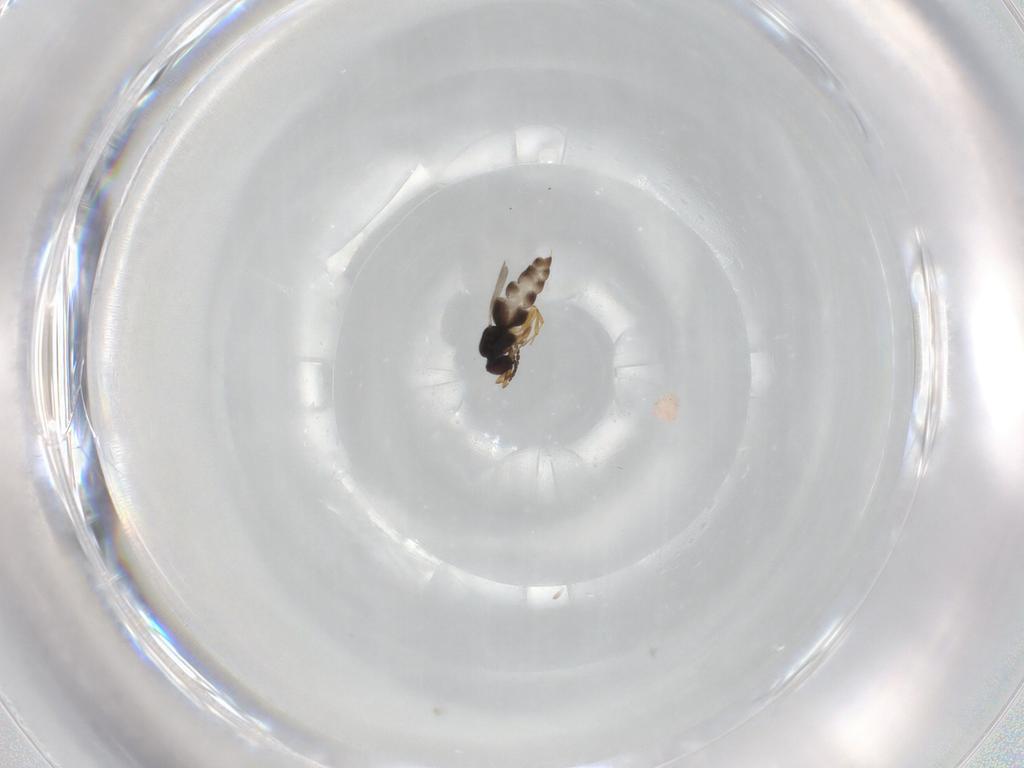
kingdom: Animalia
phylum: Arthropoda
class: Insecta
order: Hymenoptera
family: Ceraphronidae
